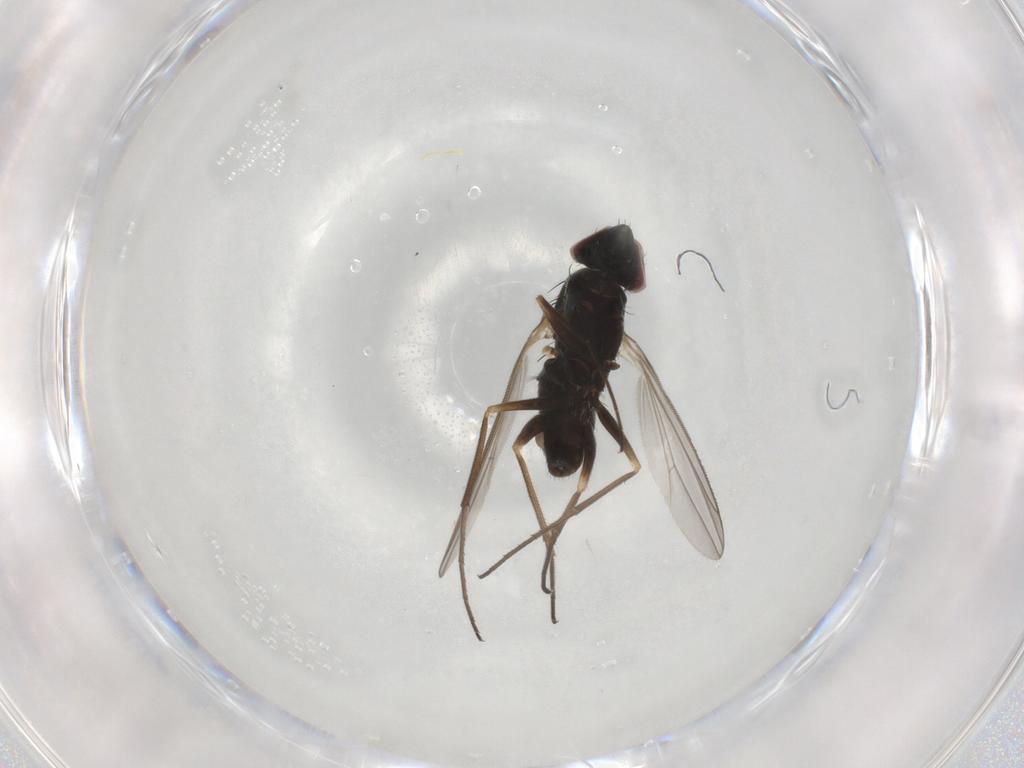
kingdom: Animalia
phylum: Arthropoda
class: Insecta
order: Diptera
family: Dolichopodidae
